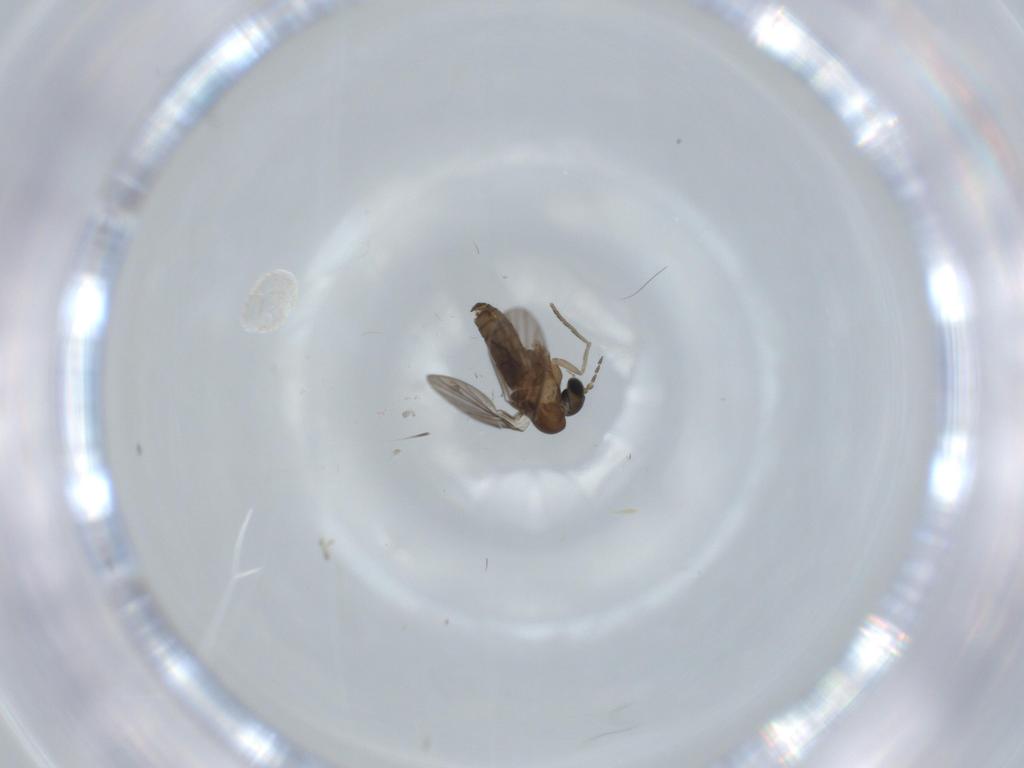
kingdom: Animalia
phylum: Arthropoda
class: Insecta
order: Diptera
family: Psychodidae
